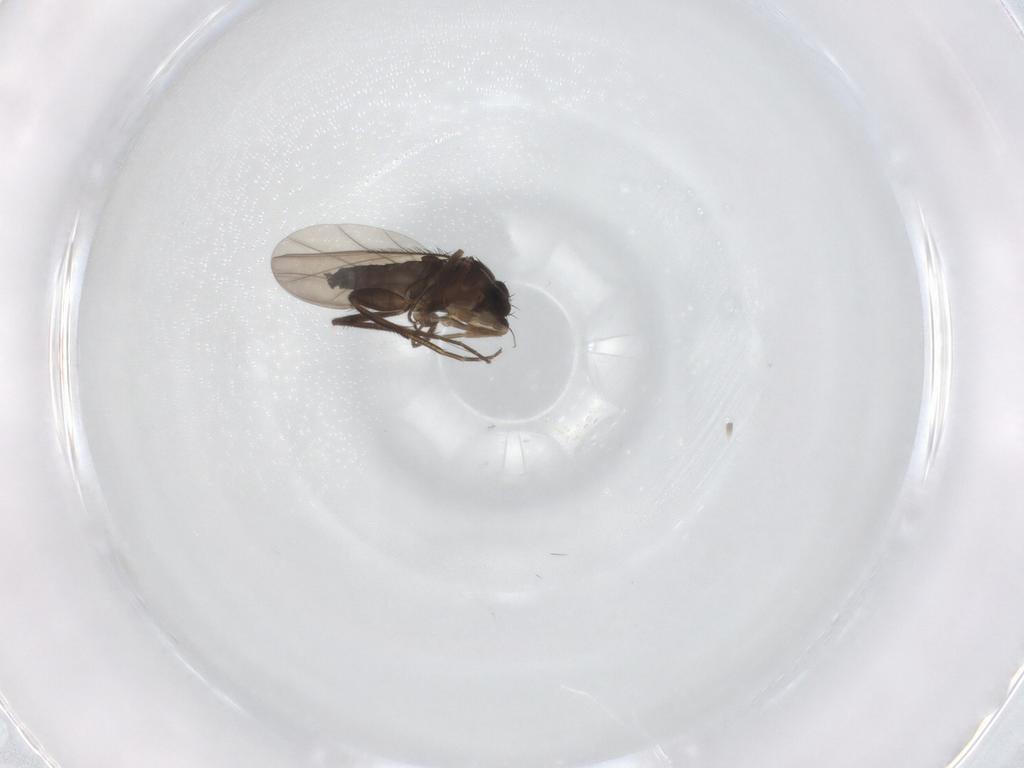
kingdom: Animalia
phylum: Arthropoda
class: Insecta
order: Diptera
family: Phoridae
